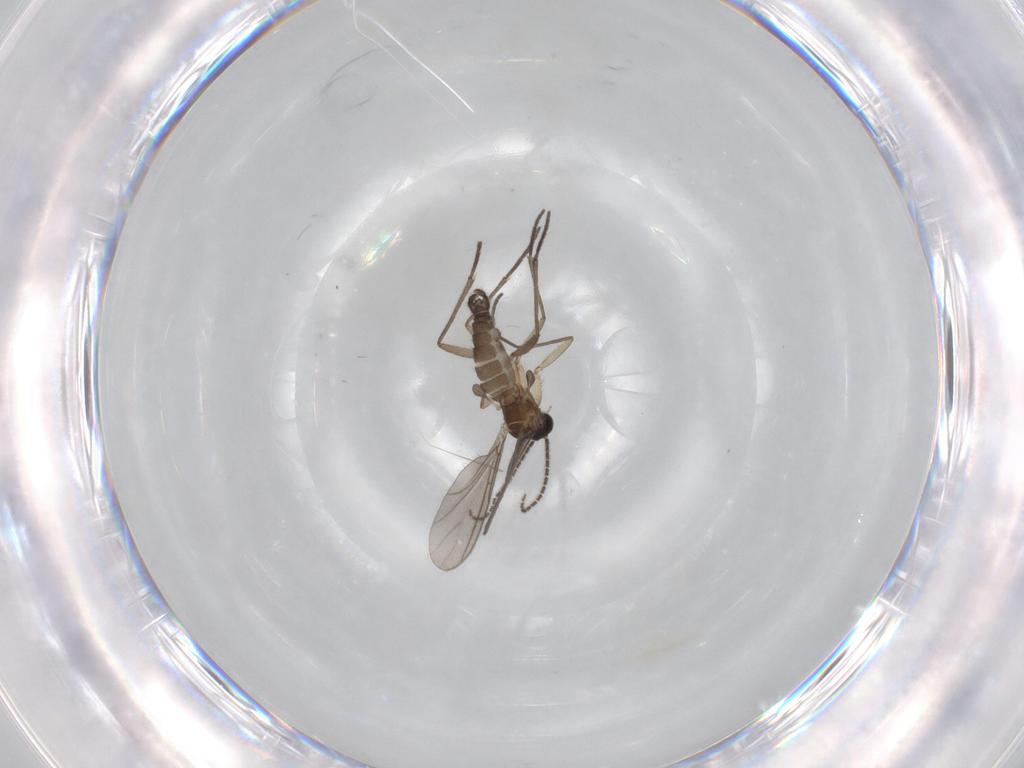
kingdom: Animalia
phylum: Arthropoda
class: Insecta
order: Diptera
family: Sciaridae
